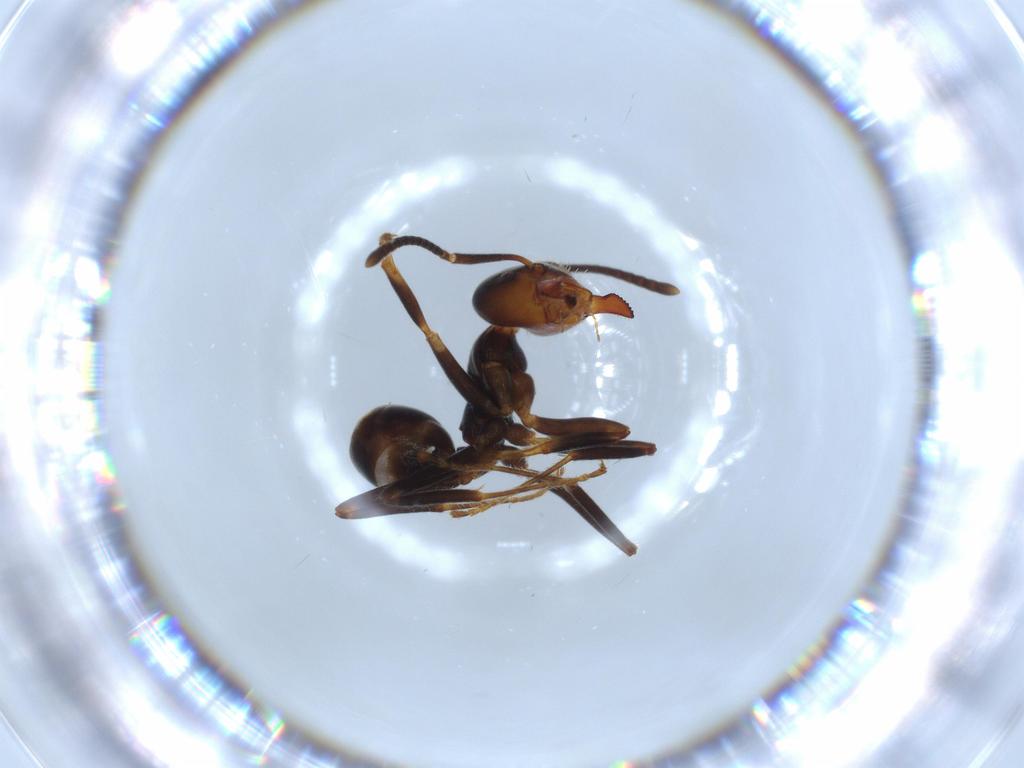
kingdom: Animalia
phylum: Arthropoda
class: Insecta
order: Hymenoptera
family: Formicidae
